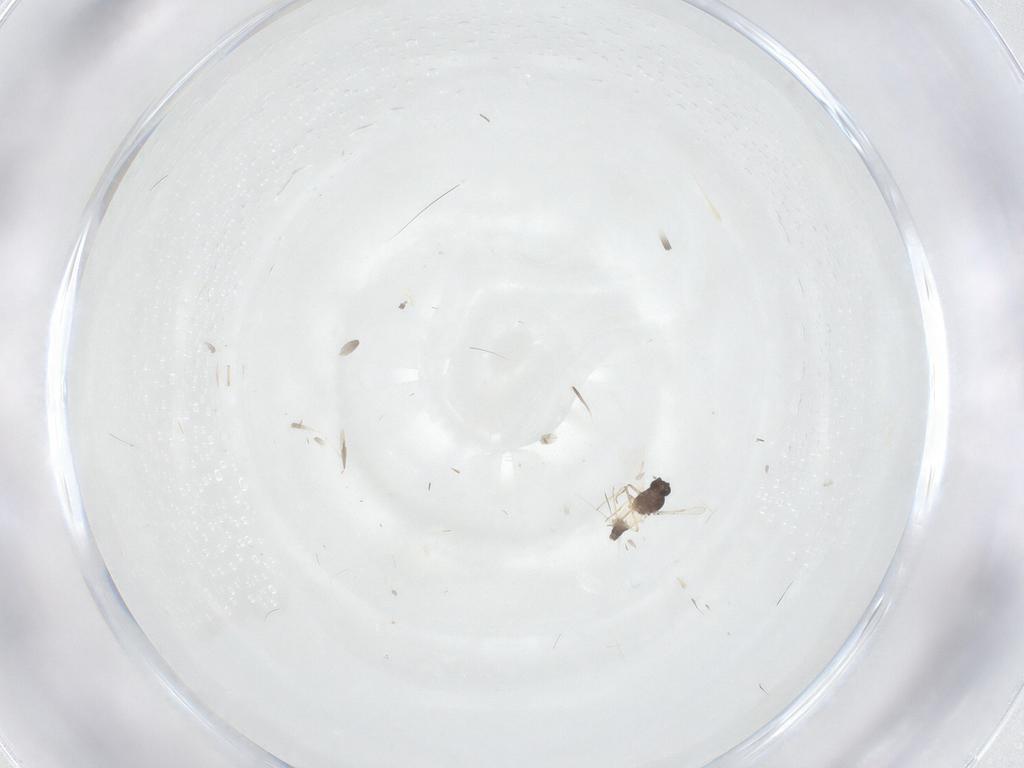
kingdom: Animalia
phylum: Arthropoda
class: Insecta
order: Diptera
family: Ceratopogonidae
